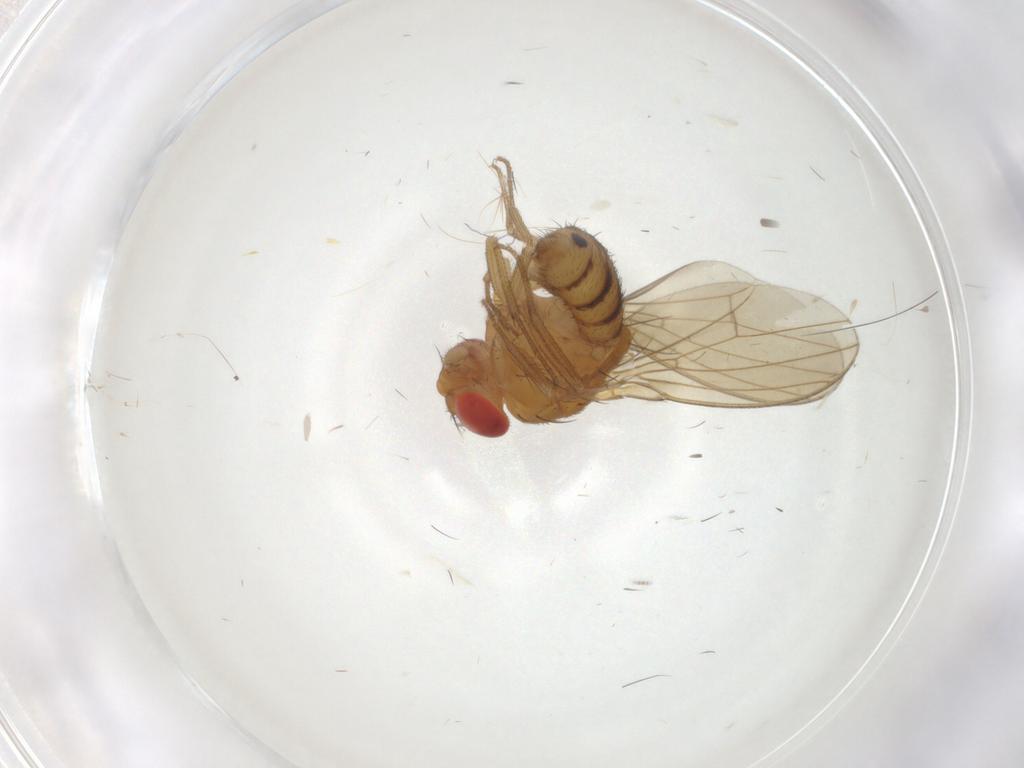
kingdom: Animalia
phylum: Arthropoda
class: Insecta
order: Diptera
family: Drosophilidae
